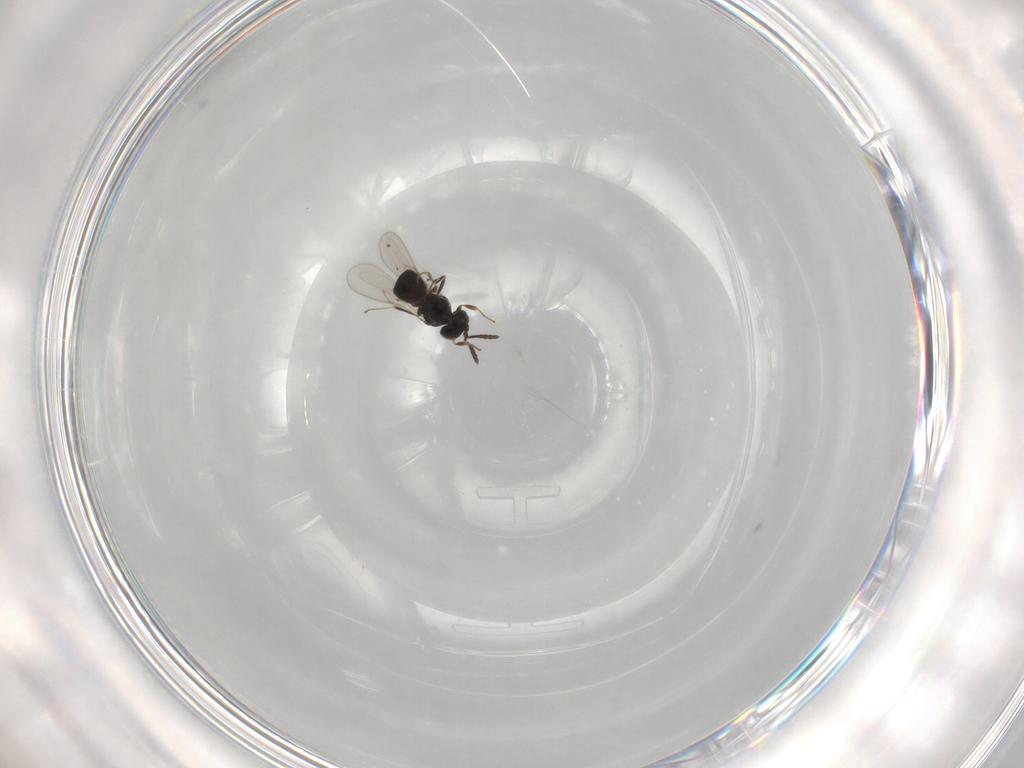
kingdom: Animalia
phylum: Arthropoda
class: Insecta
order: Hymenoptera
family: Scelionidae
